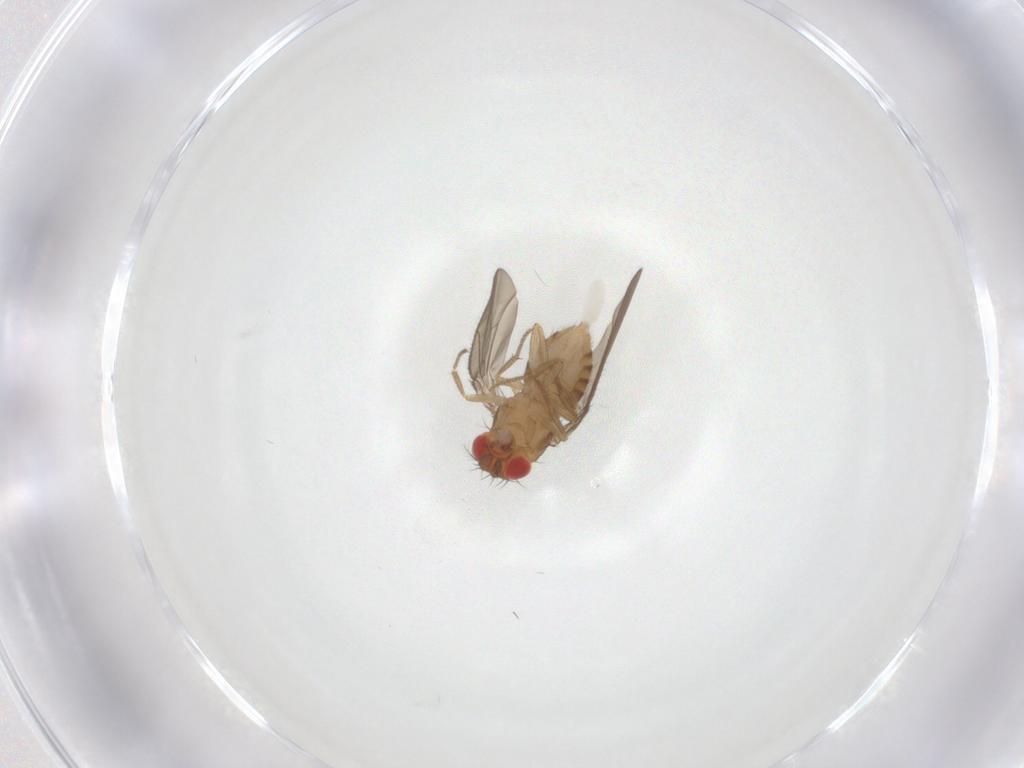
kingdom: Animalia
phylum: Arthropoda
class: Insecta
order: Diptera
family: Drosophilidae
